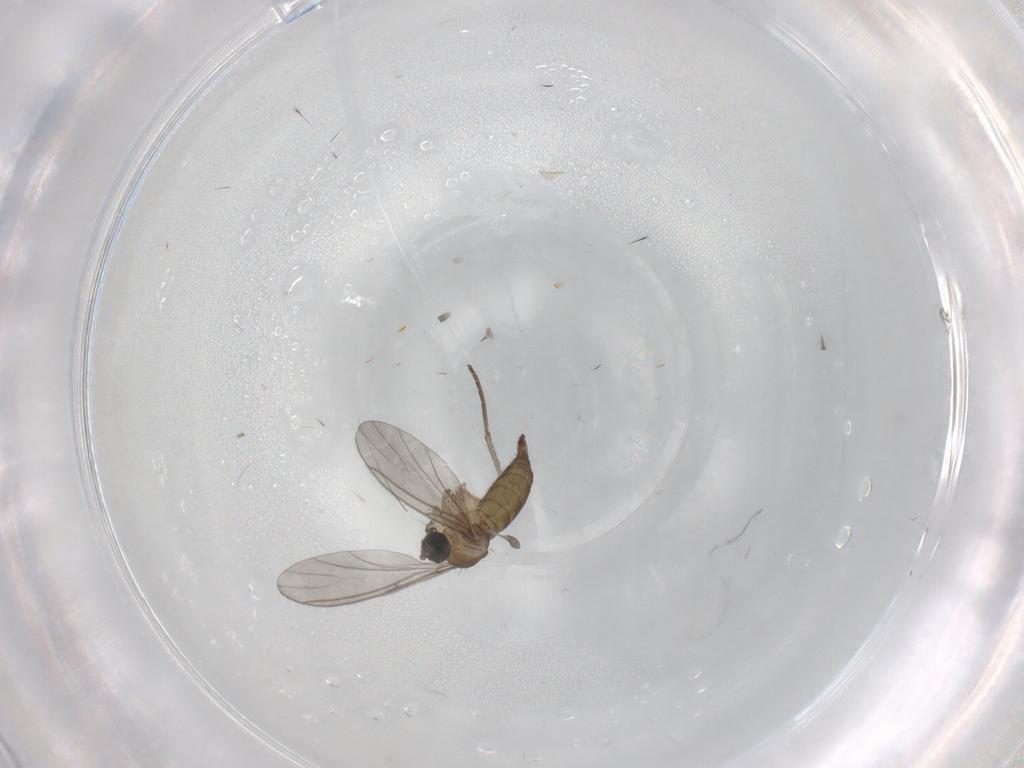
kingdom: Animalia
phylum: Arthropoda
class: Insecta
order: Diptera
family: Sciaridae
